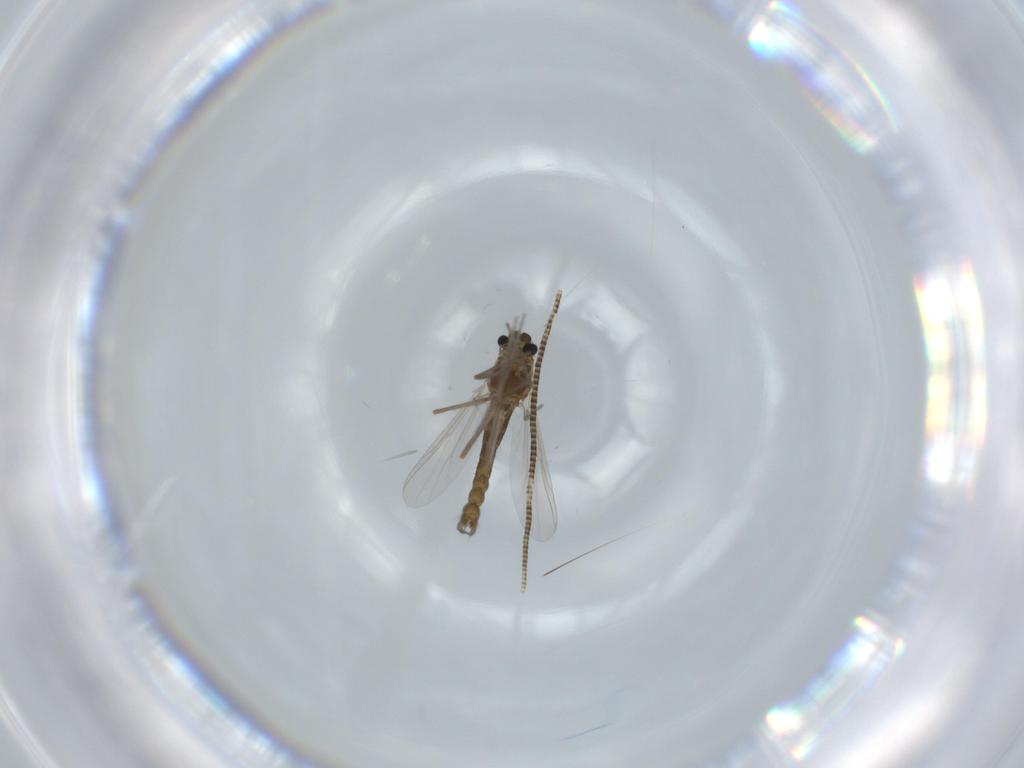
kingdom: Animalia
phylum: Arthropoda
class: Insecta
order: Diptera
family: Chironomidae
